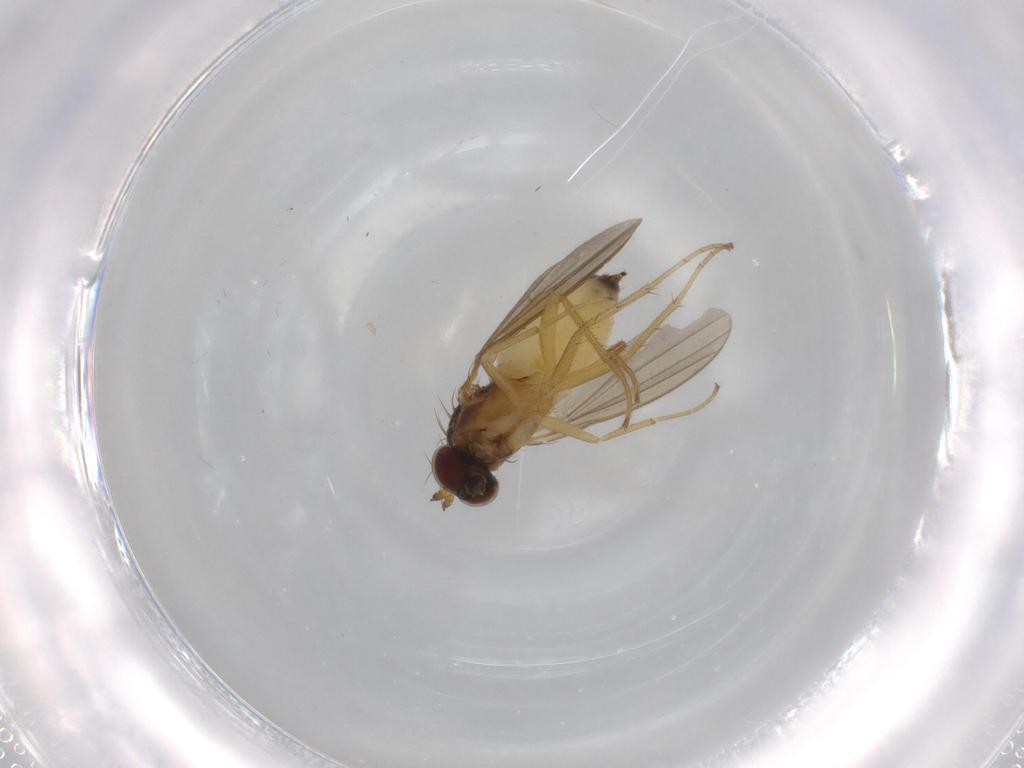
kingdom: Animalia
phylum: Arthropoda
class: Insecta
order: Diptera
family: Dolichopodidae
